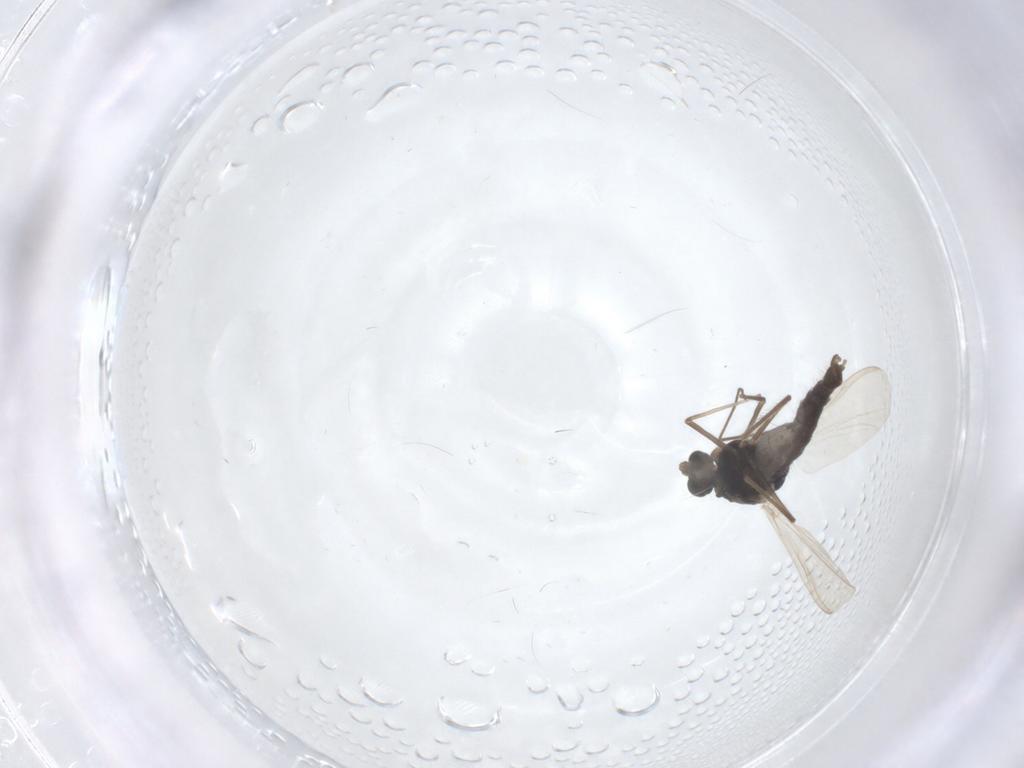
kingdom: Animalia
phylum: Arthropoda
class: Insecta
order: Diptera
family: Chironomidae
